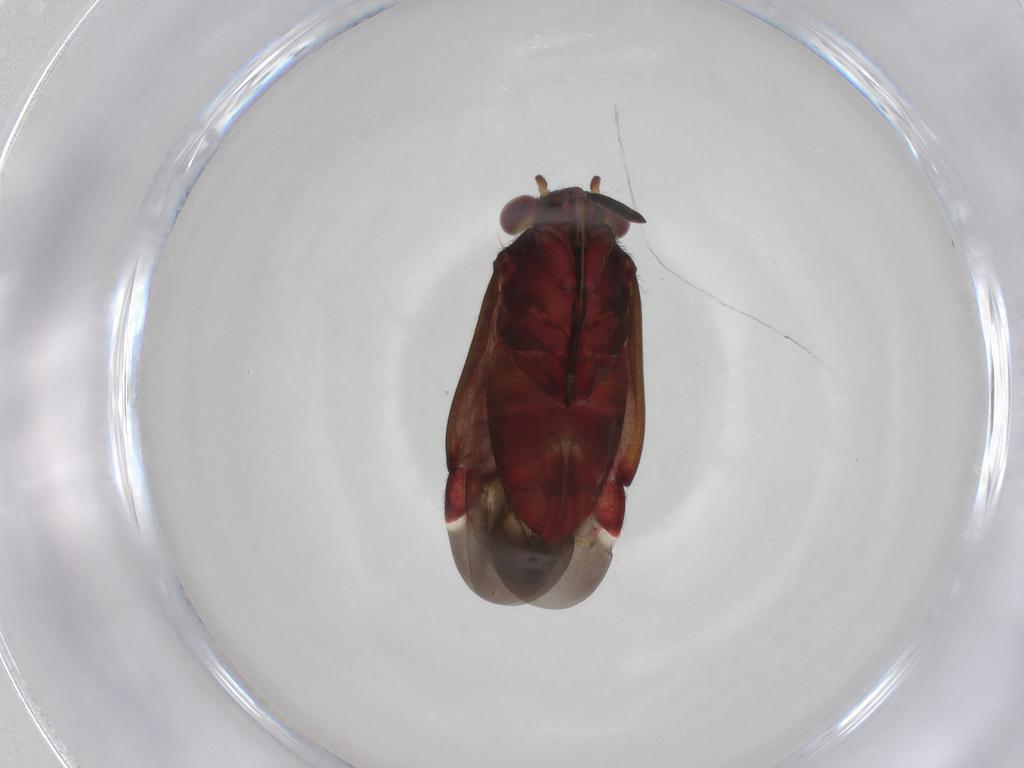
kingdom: Animalia
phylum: Arthropoda
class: Insecta
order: Hemiptera
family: Miridae
